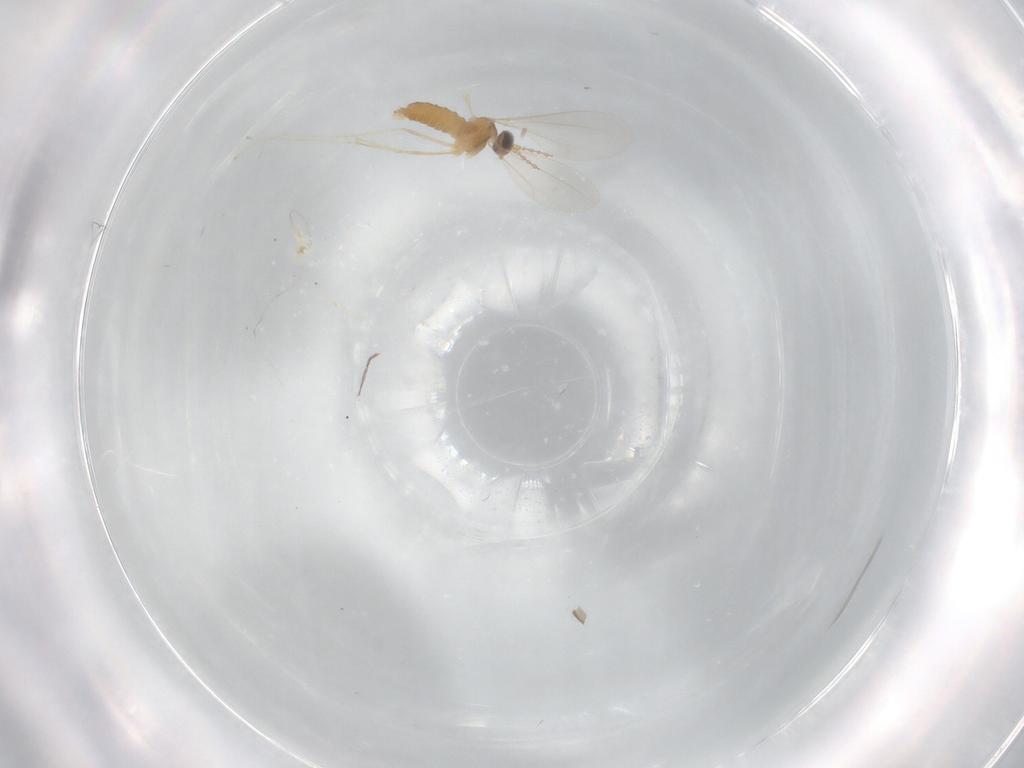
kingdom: Animalia
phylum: Arthropoda
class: Insecta
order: Diptera
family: Cecidomyiidae
